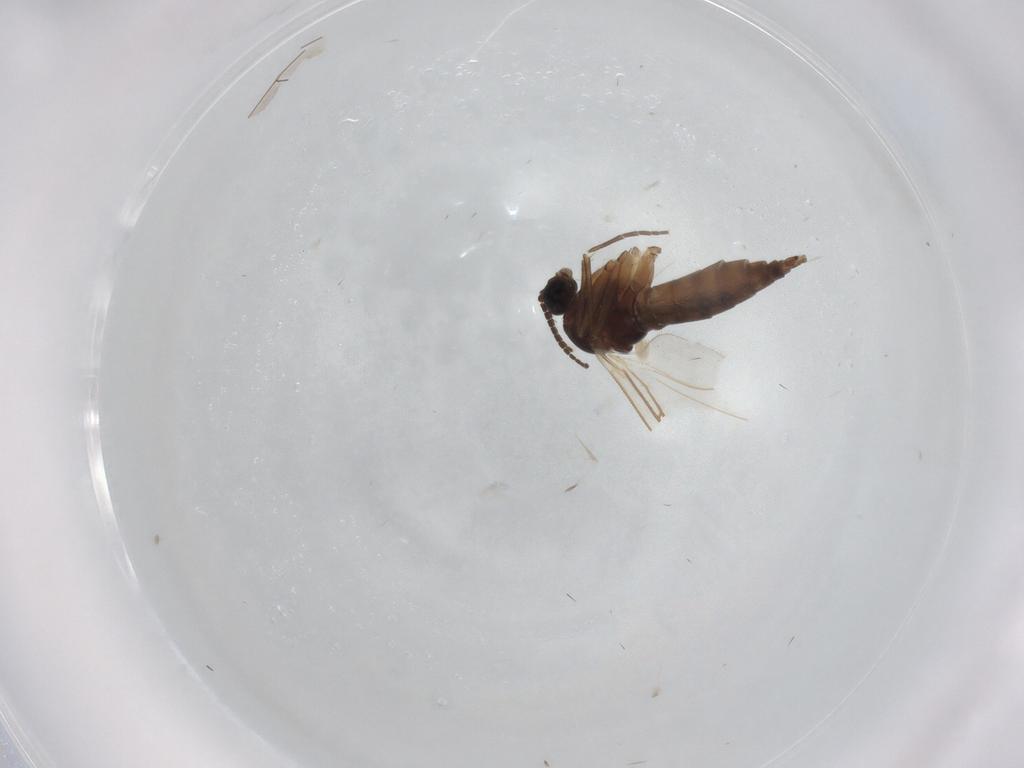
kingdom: Animalia
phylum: Arthropoda
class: Insecta
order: Diptera
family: Sciaridae
